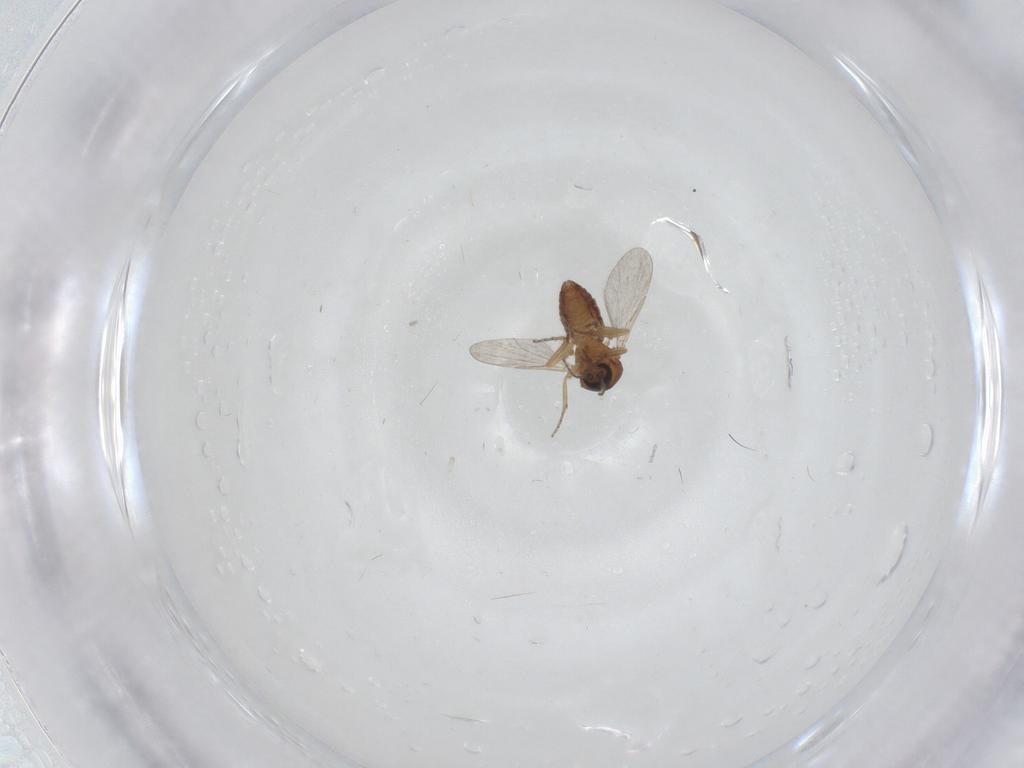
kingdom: Animalia
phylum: Arthropoda
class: Insecta
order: Diptera
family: Ceratopogonidae
